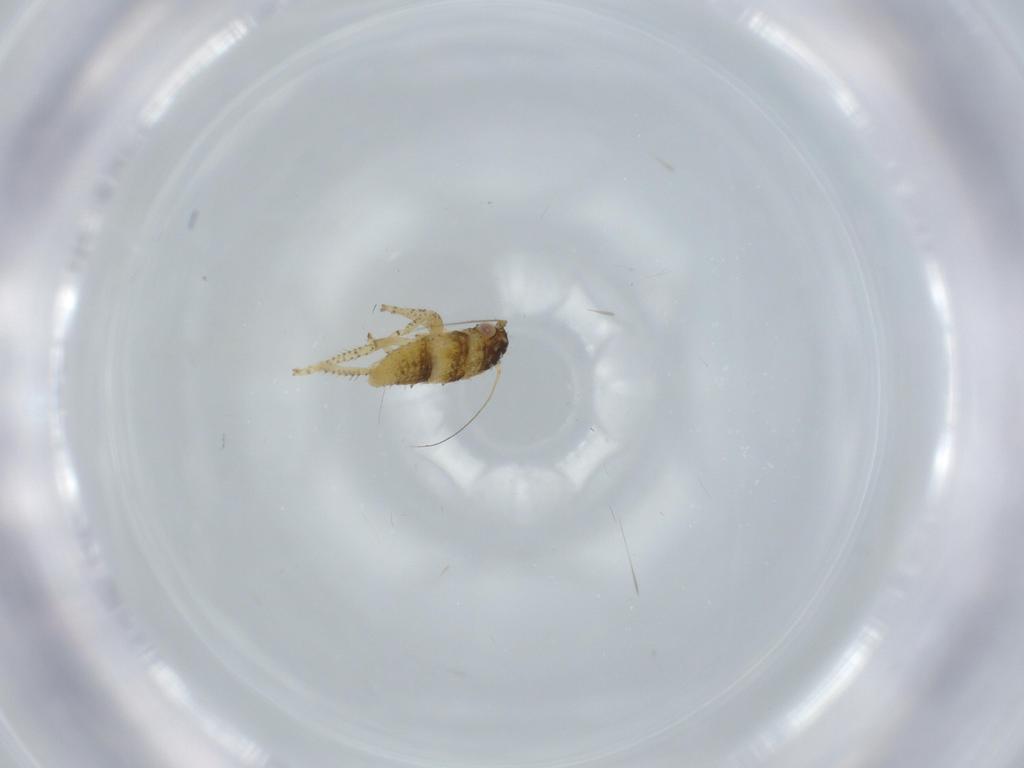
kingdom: Animalia
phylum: Arthropoda
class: Insecta
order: Hemiptera
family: Cicadellidae
